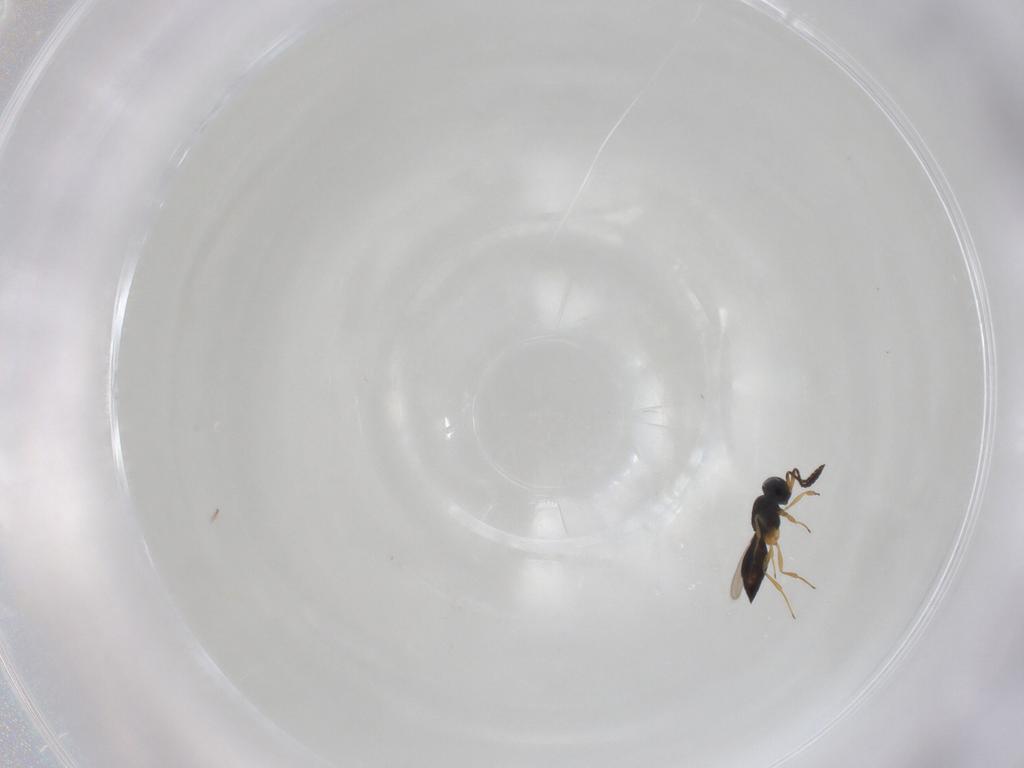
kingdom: Animalia
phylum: Arthropoda
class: Insecta
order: Hymenoptera
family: Scelionidae
